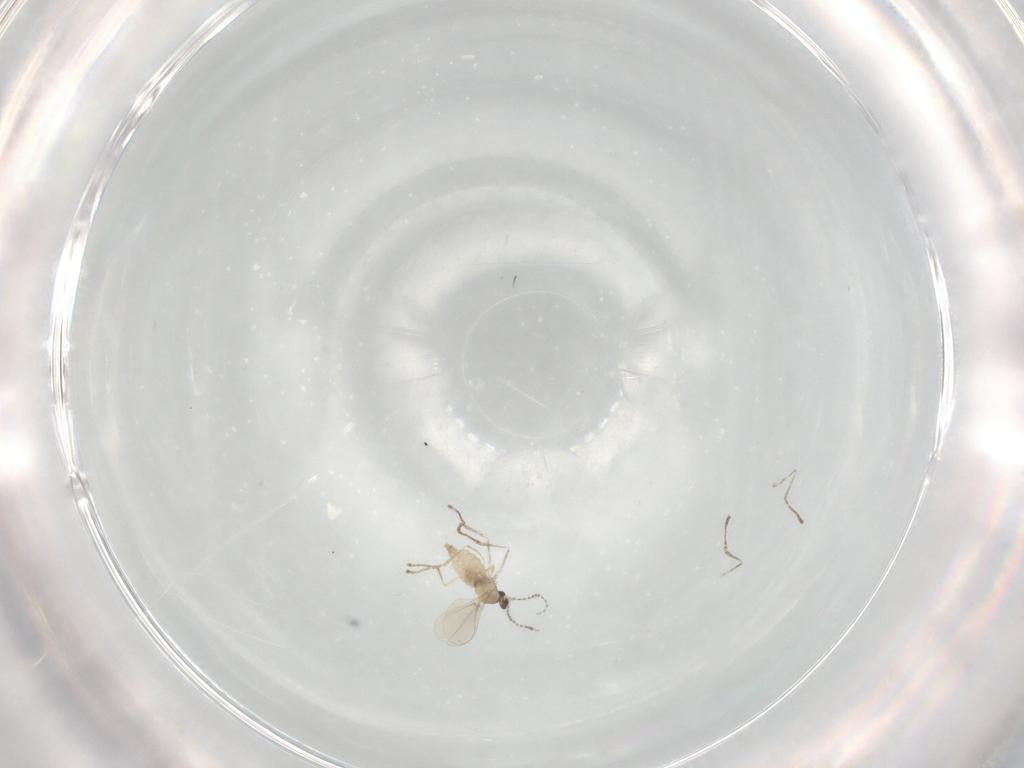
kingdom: Animalia
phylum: Arthropoda
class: Insecta
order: Diptera
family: Cecidomyiidae
